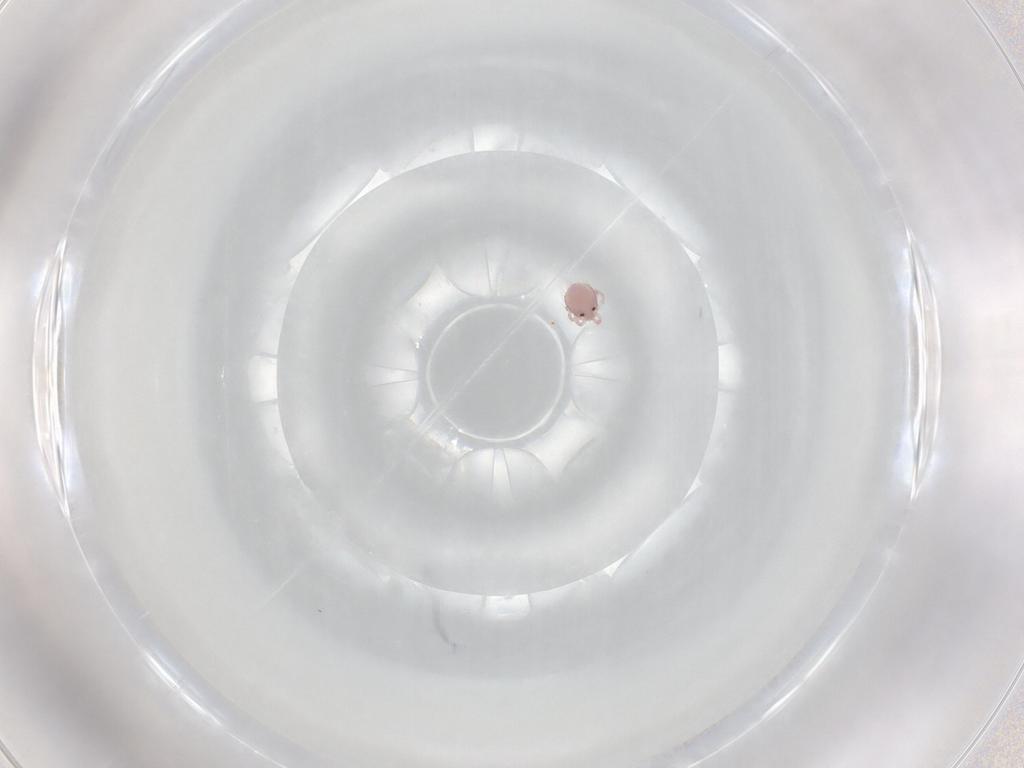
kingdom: Animalia
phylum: Arthropoda
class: Arachnida
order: Trombidiformes
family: Lebertiidae
